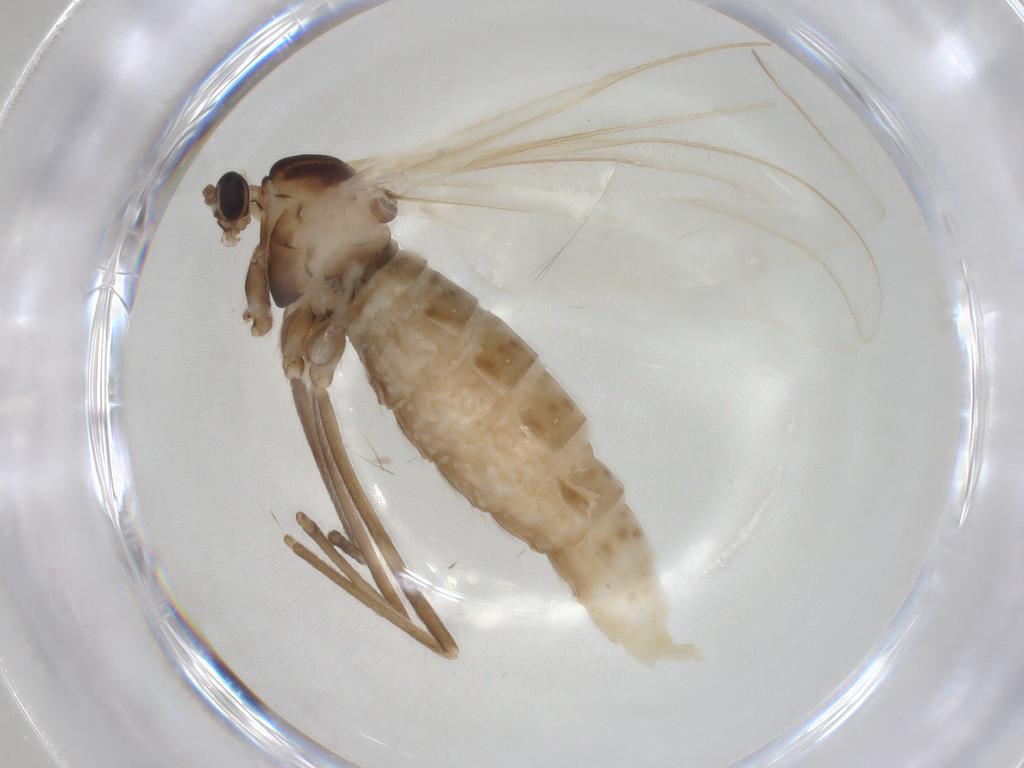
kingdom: Animalia
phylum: Arthropoda
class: Insecta
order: Diptera
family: Cecidomyiidae
